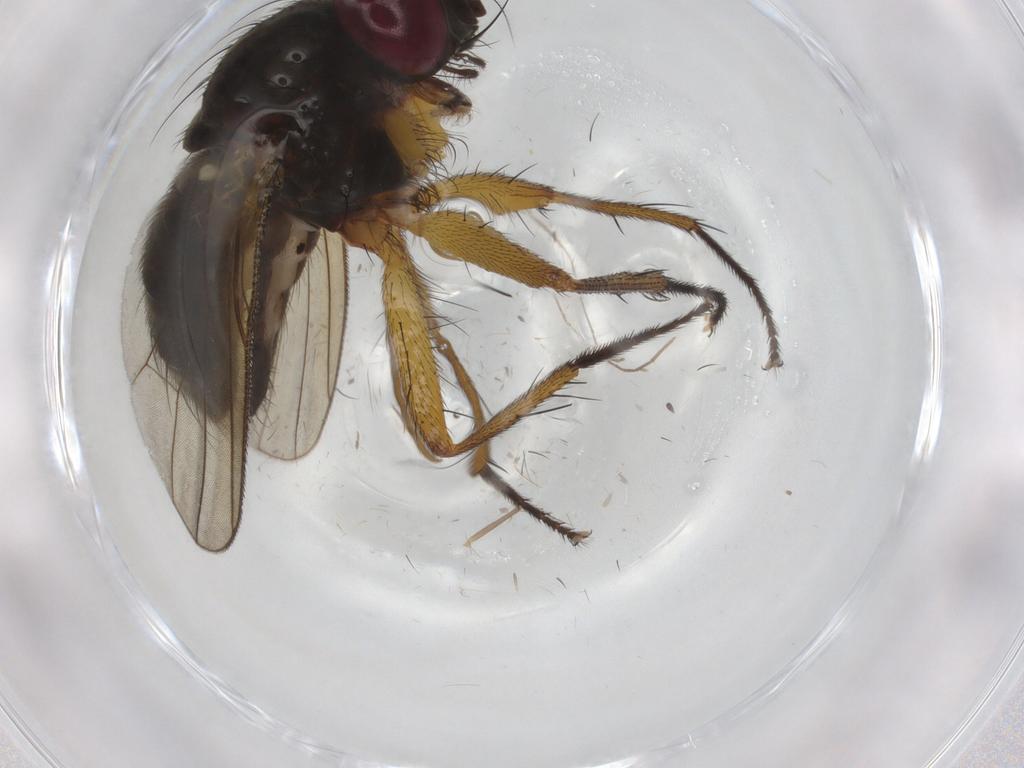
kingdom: Animalia
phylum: Arthropoda
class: Insecta
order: Diptera
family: Muscidae
